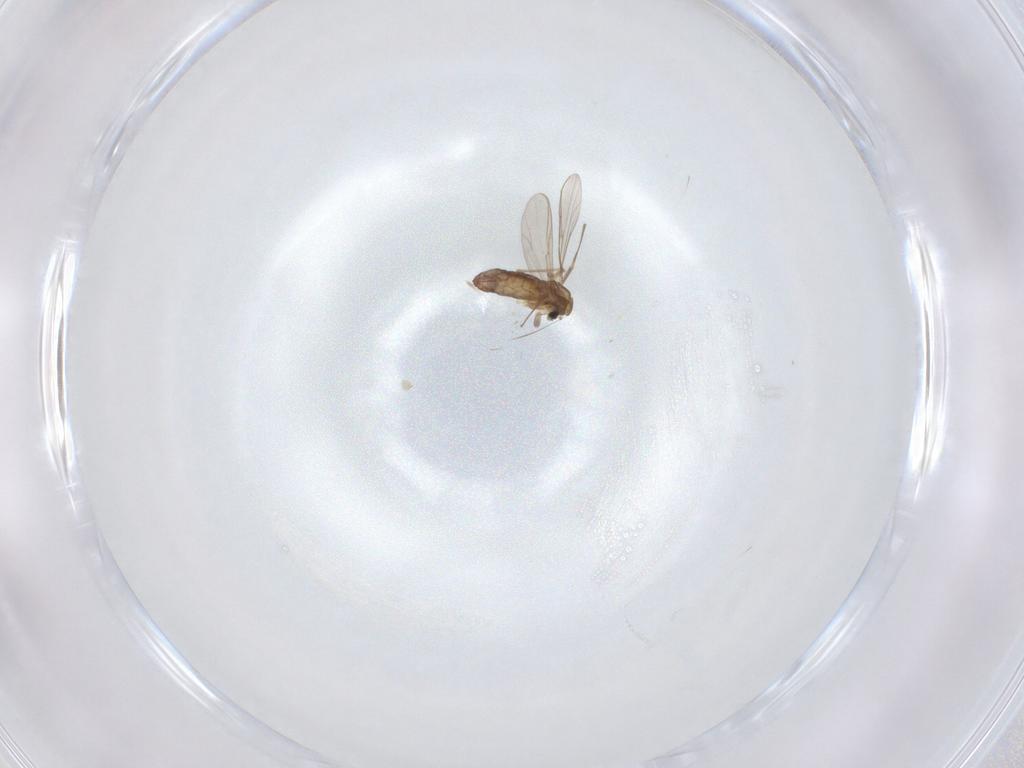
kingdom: Animalia
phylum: Arthropoda
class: Insecta
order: Diptera
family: Chironomidae
